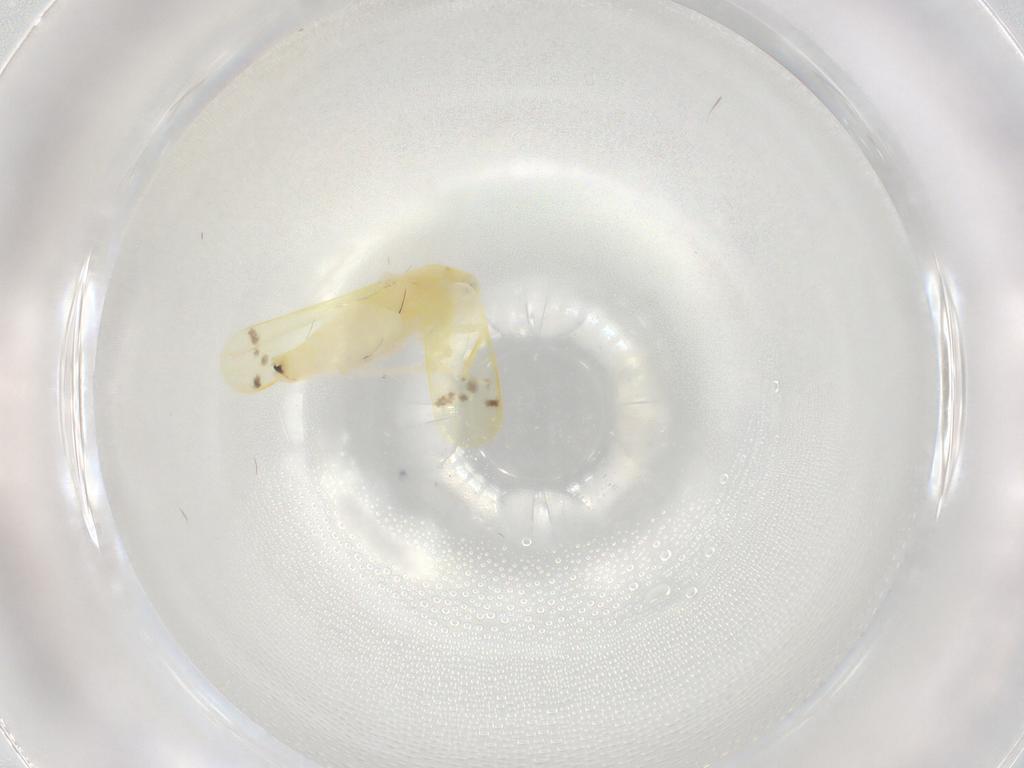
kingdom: Animalia
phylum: Arthropoda
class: Insecta
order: Hemiptera
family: Cicadellidae
